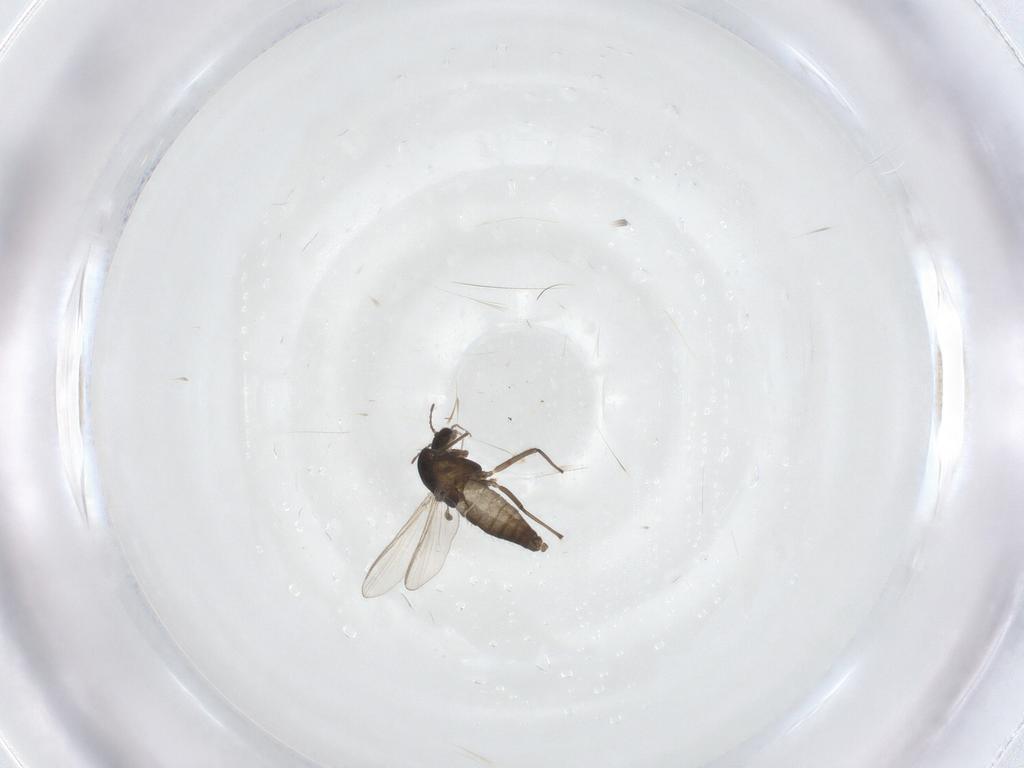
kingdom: Animalia
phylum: Arthropoda
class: Insecta
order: Diptera
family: Chironomidae
